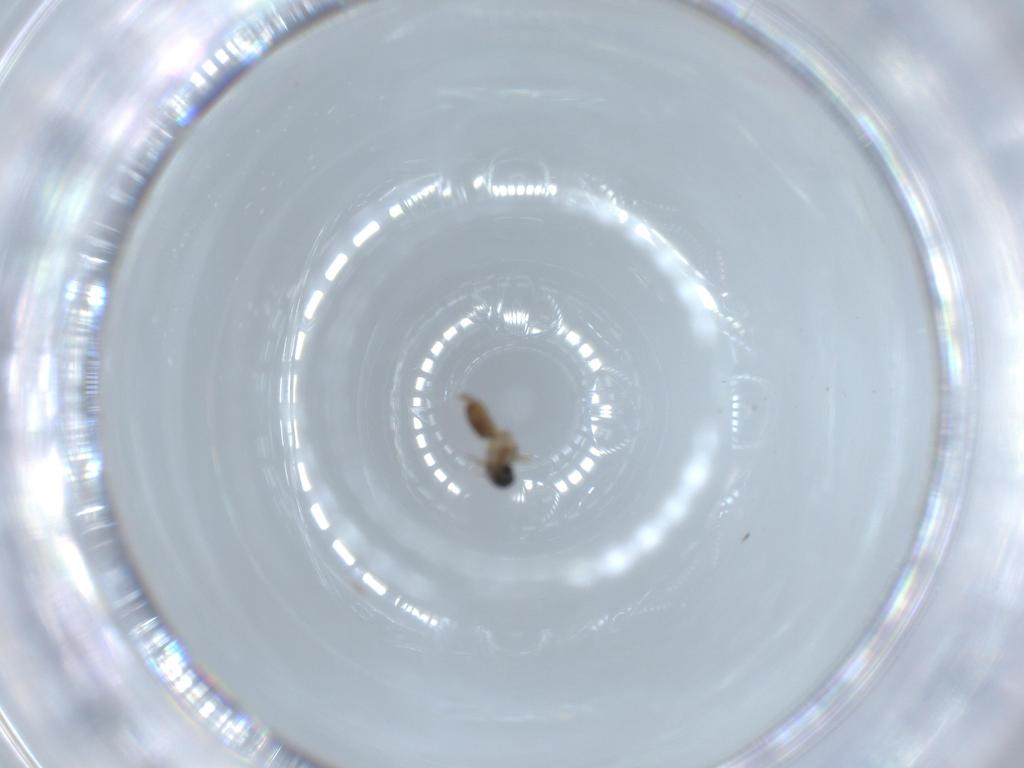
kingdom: Animalia
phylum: Arthropoda
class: Insecta
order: Diptera
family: Cecidomyiidae
